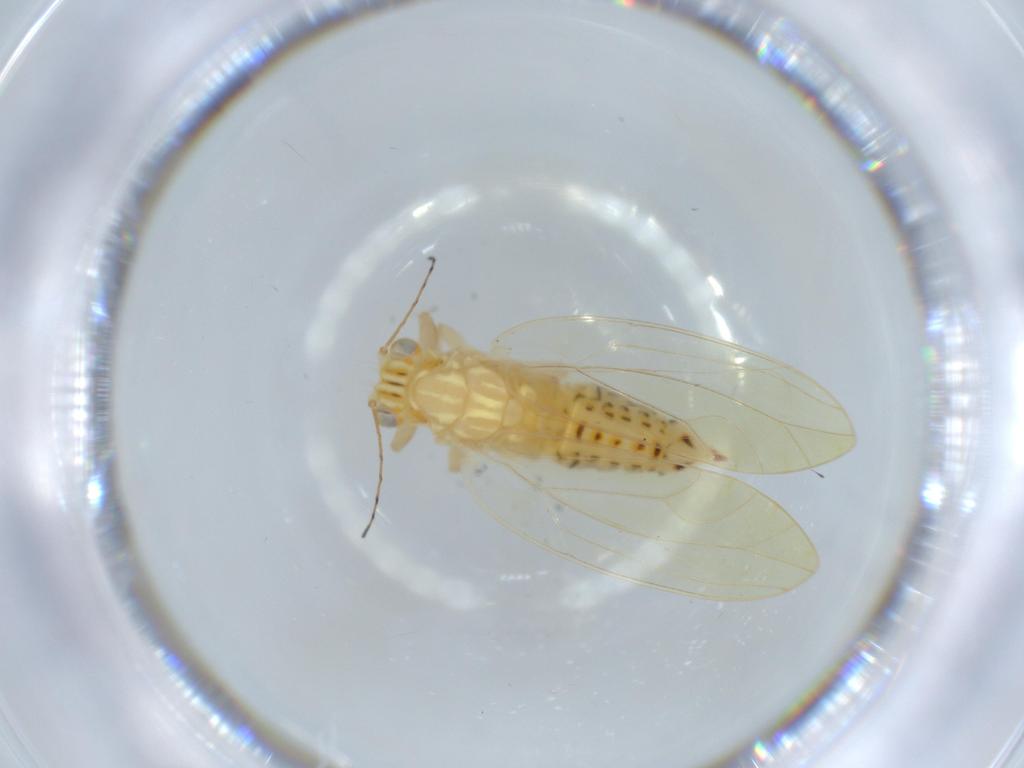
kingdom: Animalia
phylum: Arthropoda
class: Insecta
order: Hemiptera
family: Triozidae
